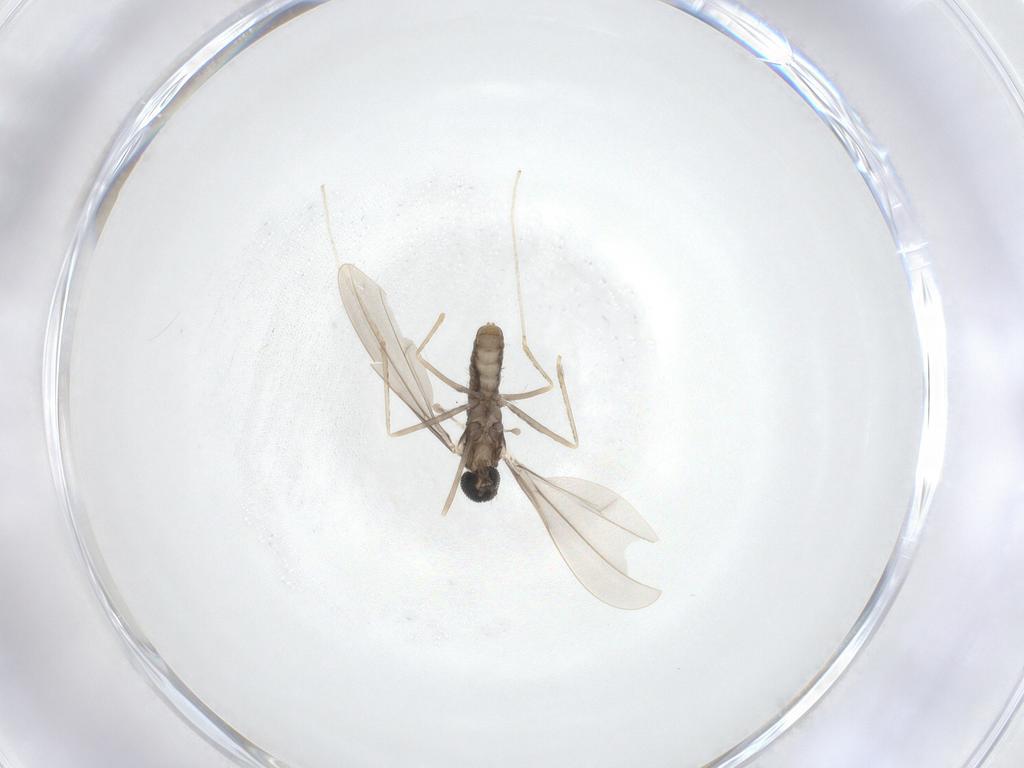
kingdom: Animalia
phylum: Arthropoda
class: Insecta
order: Diptera
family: Cecidomyiidae
